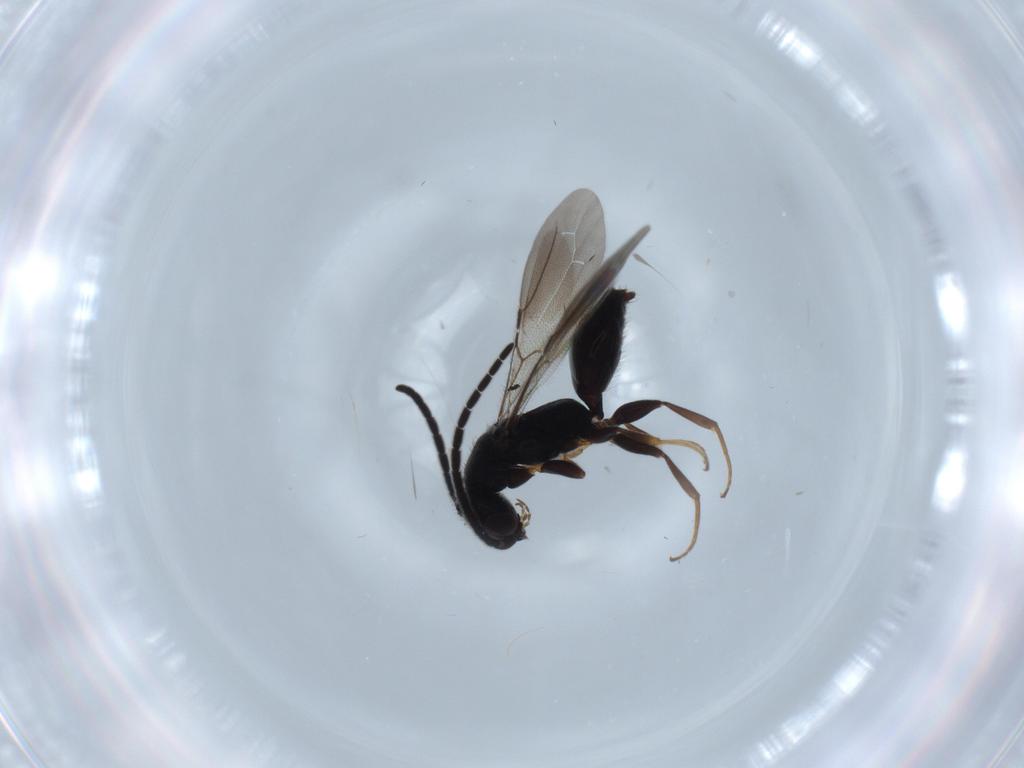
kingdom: Animalia
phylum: Arthropoda
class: Insecta
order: Hymenoptera
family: Bethylidae
